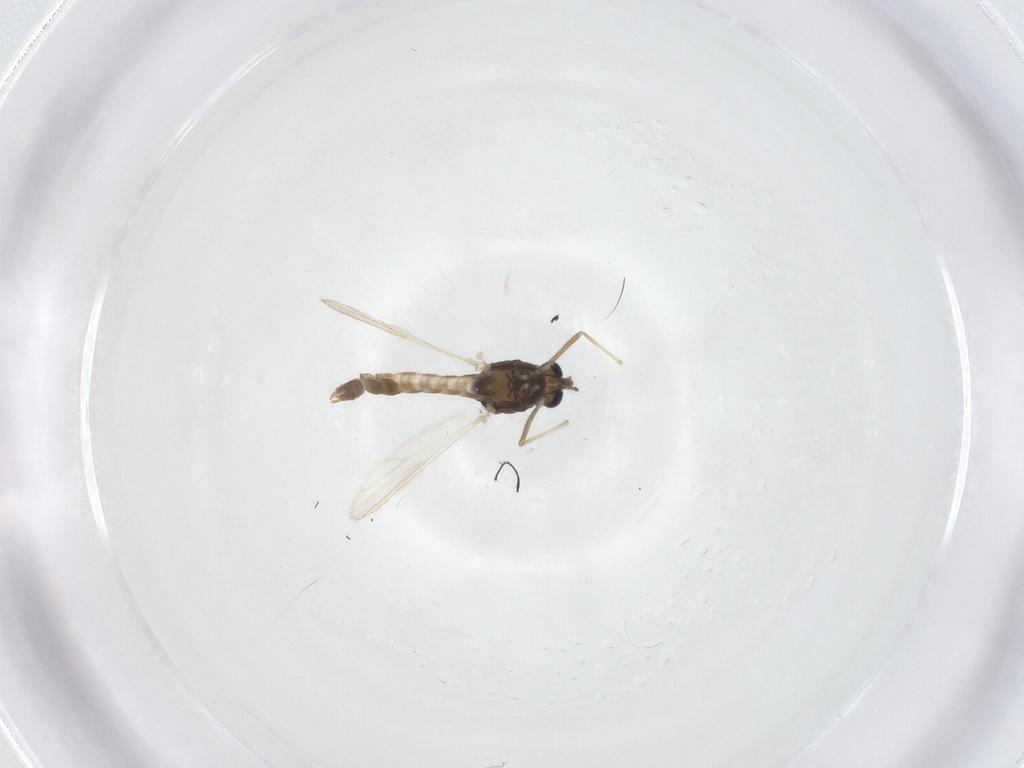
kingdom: Animalia
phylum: Arthropoda
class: Insecta
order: Diptera
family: Chironomidae
